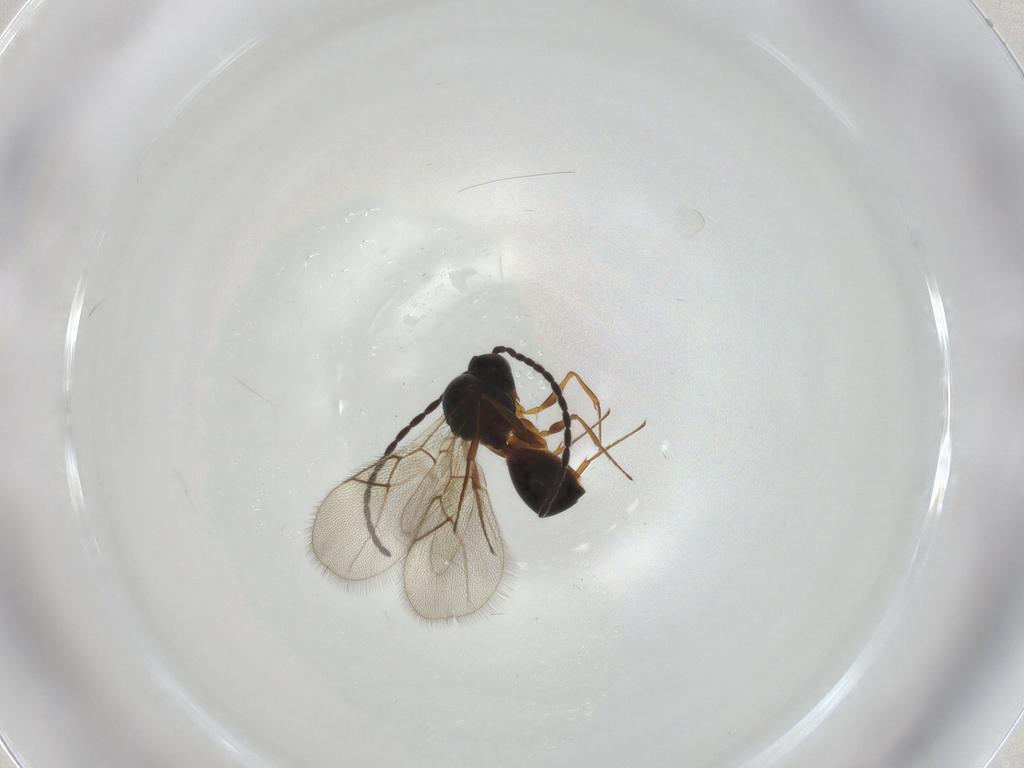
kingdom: Animalia
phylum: Arthropoda
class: Insecta
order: Hymenoptera
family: Figitidae
